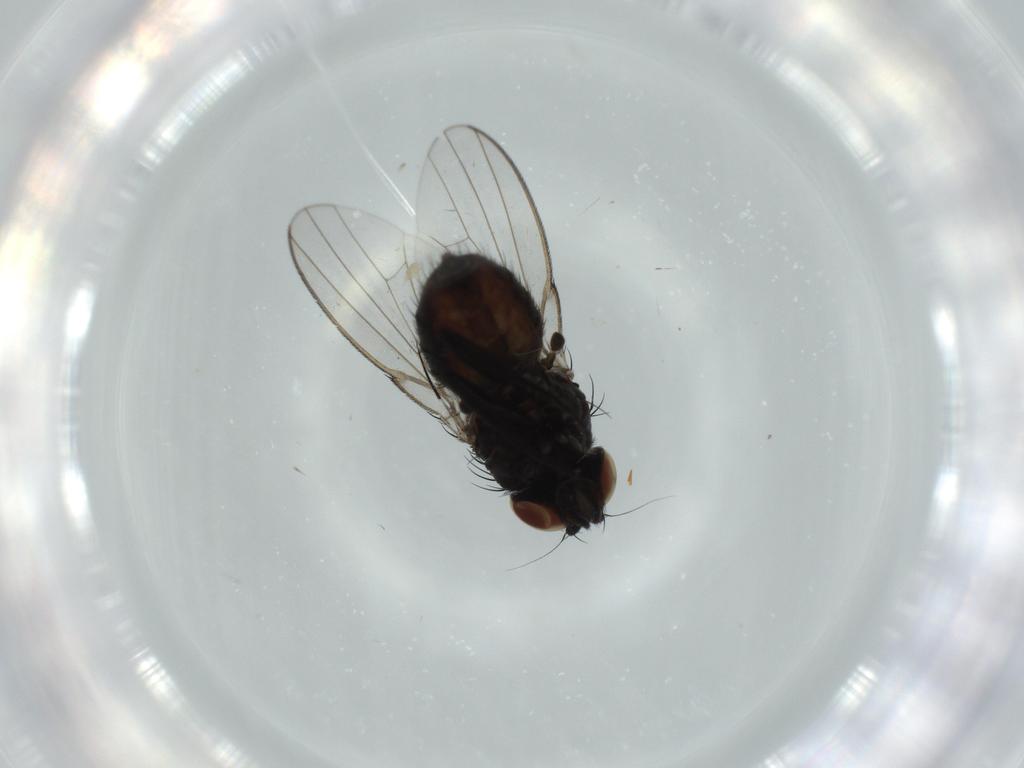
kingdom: Animalia
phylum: Arthropoda
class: Insecta
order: Diptera
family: Milichiidae
